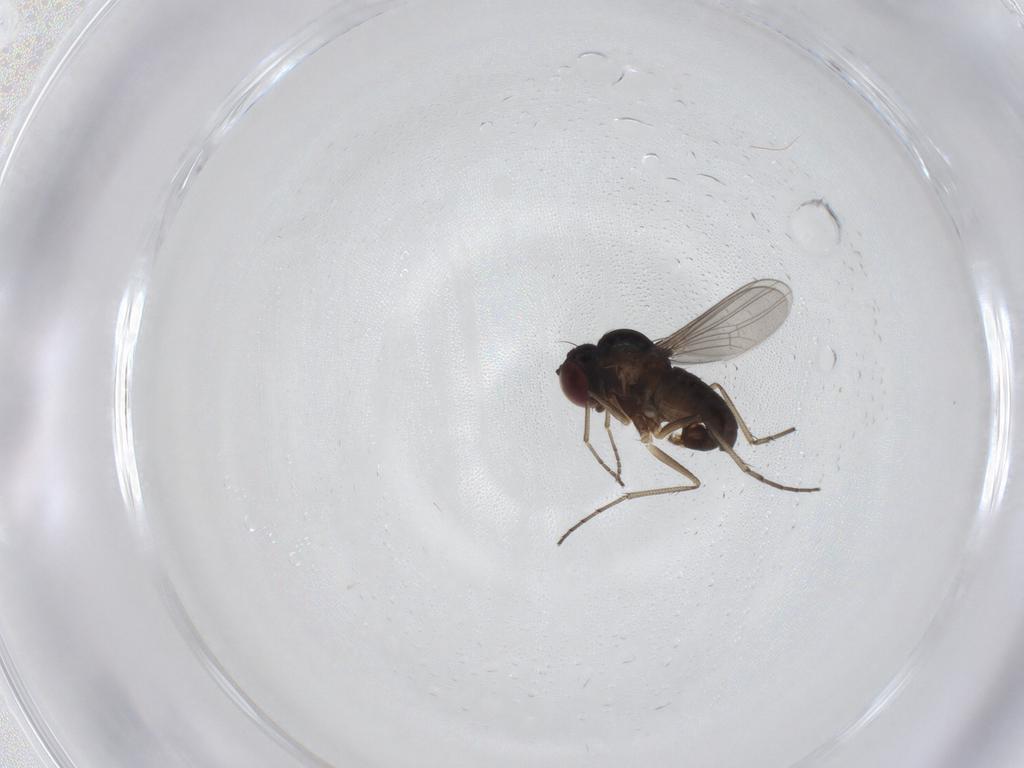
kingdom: Animalia
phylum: Arthropoda
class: Insecta
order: Diptera
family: Dolichopodidae
